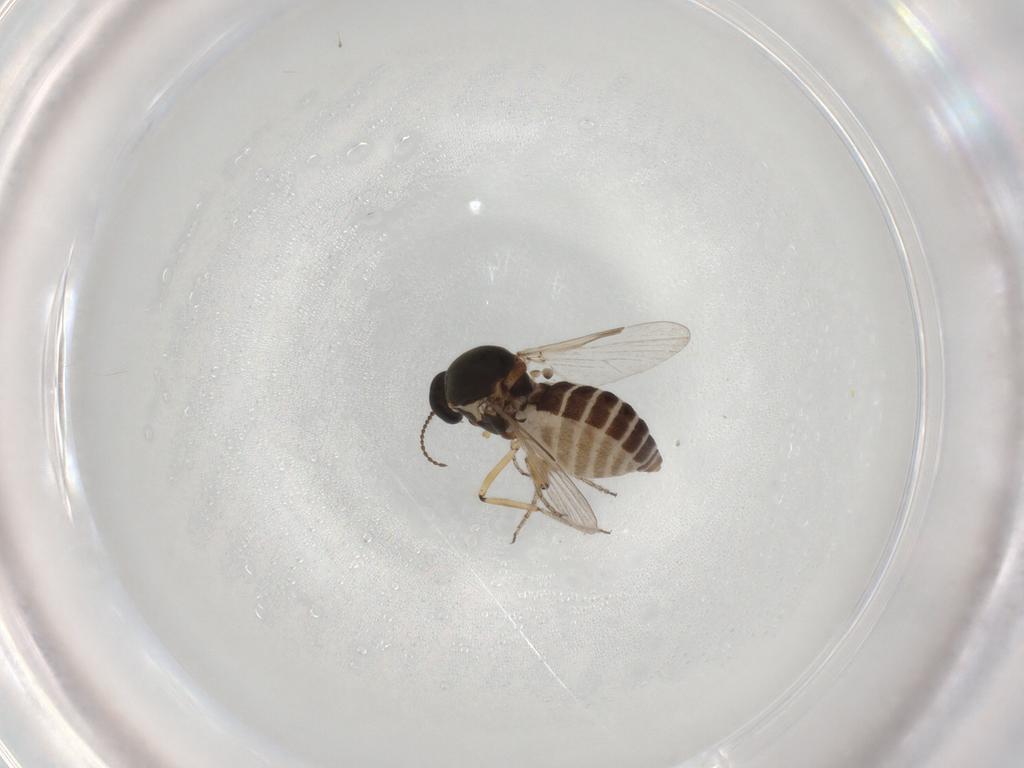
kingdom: Animalia
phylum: Arthropoda
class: Insecta
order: Diptera
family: Ceratopogonidae
